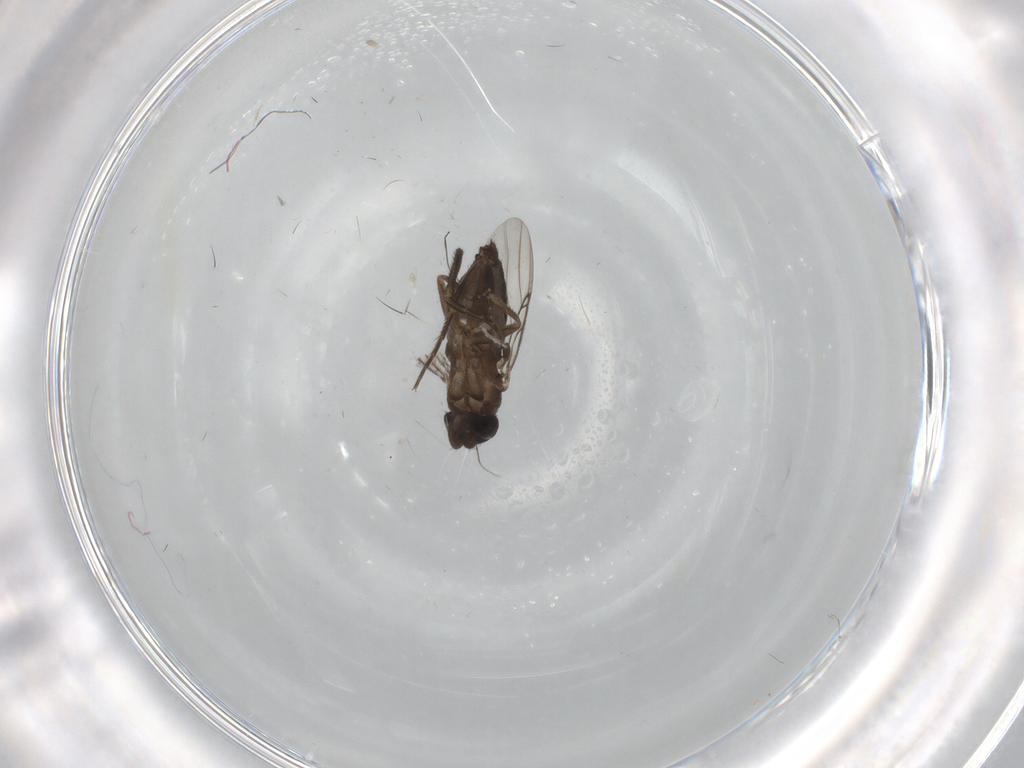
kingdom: Animalia
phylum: Arthropoda
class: Insecta
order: Diptera
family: Phoridae
